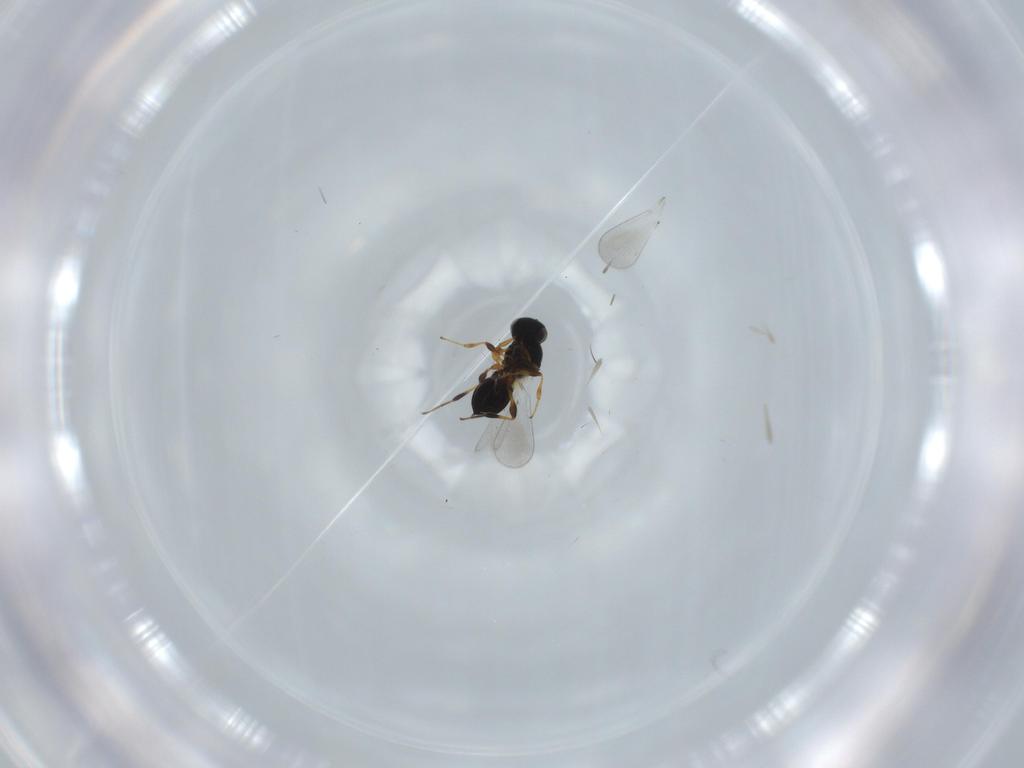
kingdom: Animalia
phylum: Arthropoda
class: Insecta
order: Hymenoptera
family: Platygastridae
